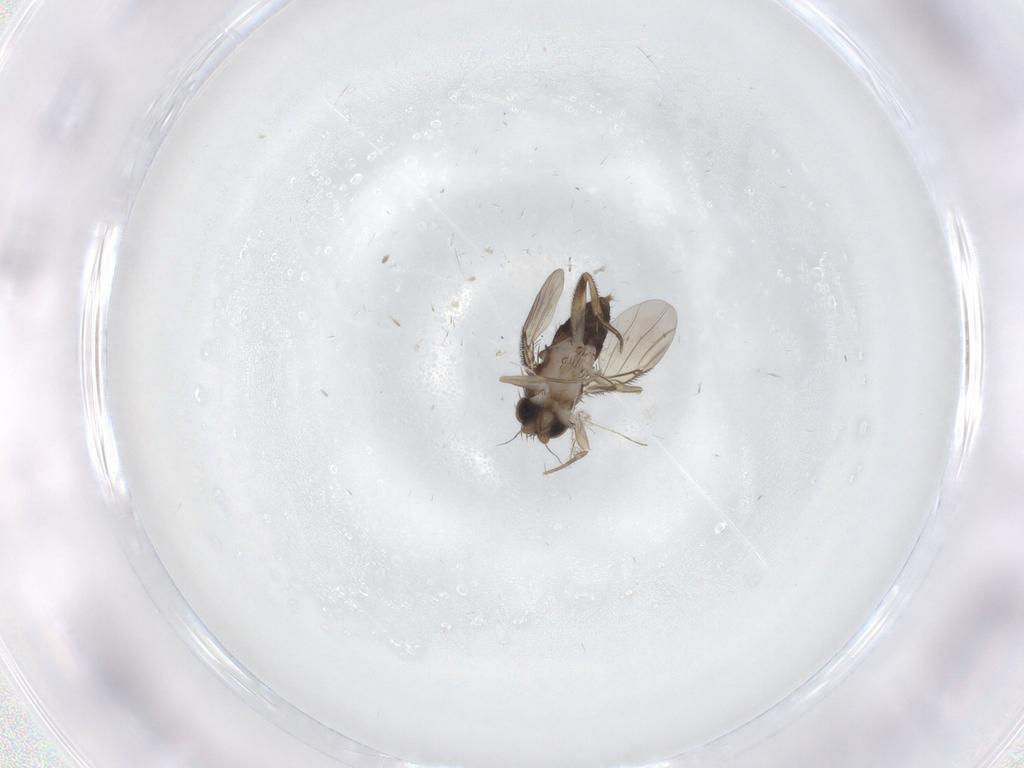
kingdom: Animalia
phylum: Arthropoda
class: Insecta
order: Diptera
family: Phoridae
